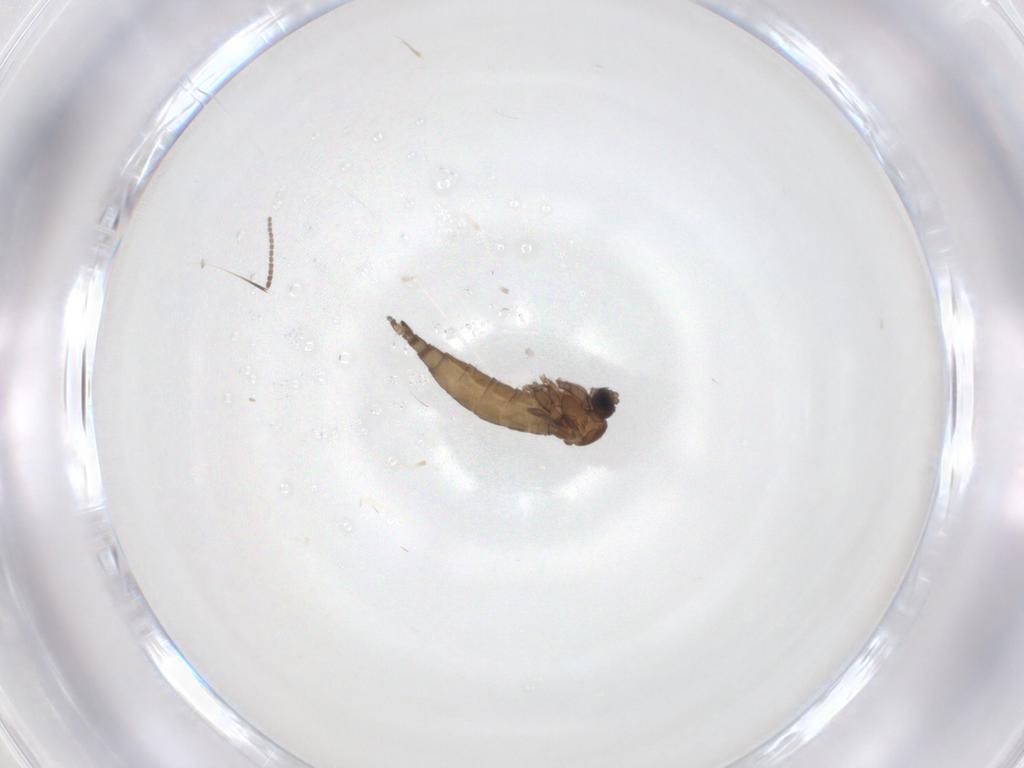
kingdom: Animalia
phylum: Arthropoda
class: Insecta
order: Diptera
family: Sciaridae
